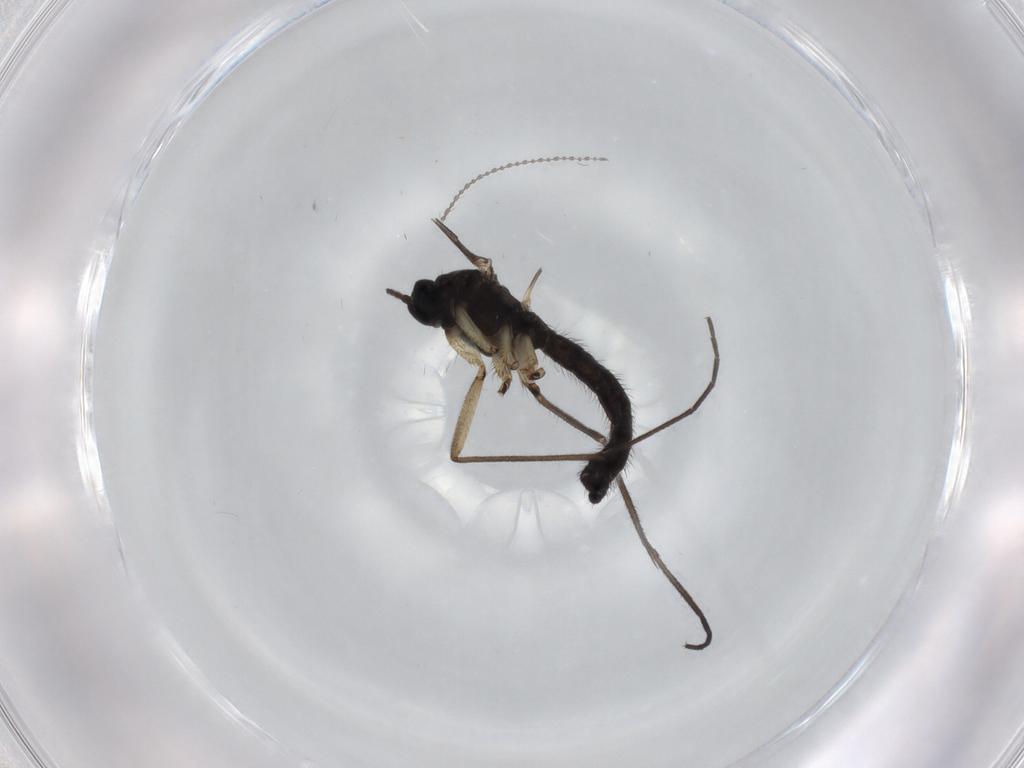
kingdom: Animalia
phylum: Arthropoda
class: Insecta
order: Diptera
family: Sciaridae
